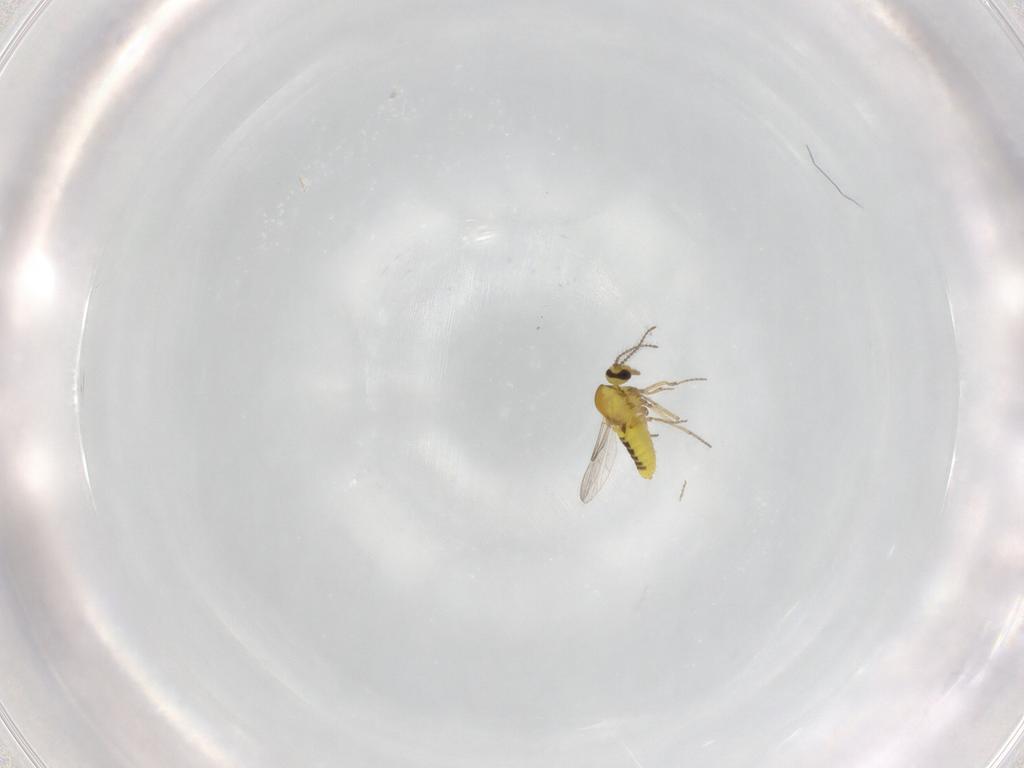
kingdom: Animalia
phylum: Arthropoda
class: Insecta
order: Diptera
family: Ceratopogonidae
